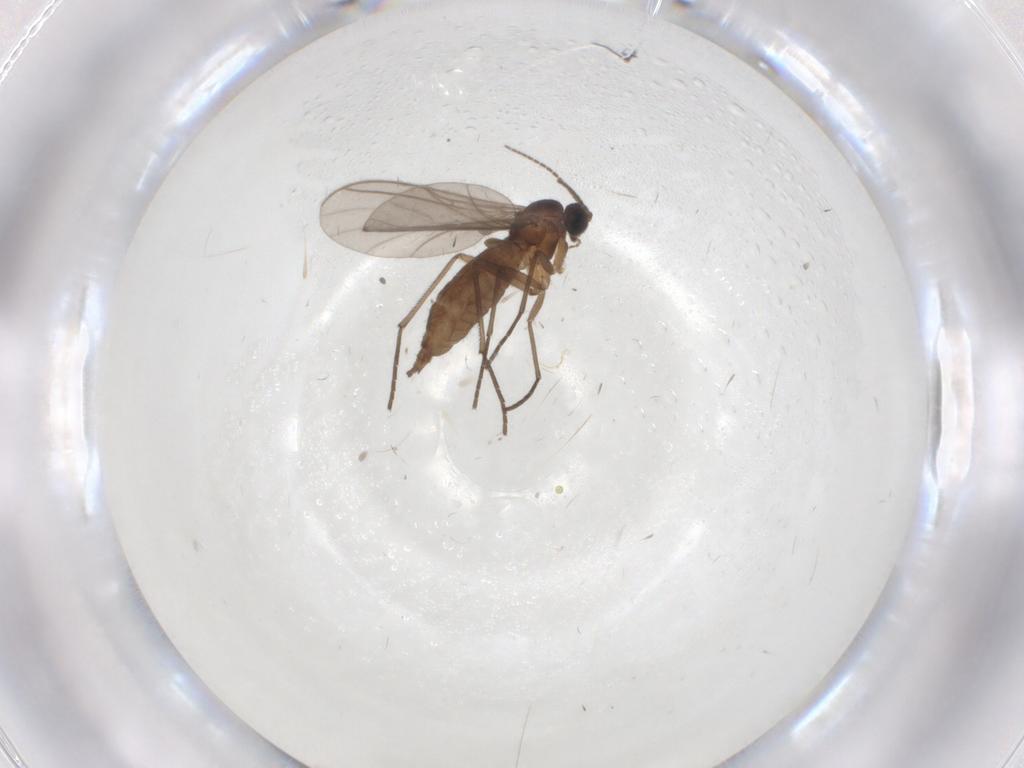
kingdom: Animalia
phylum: Arthropoda
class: Insecta
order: Diptera
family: Sciaridae
